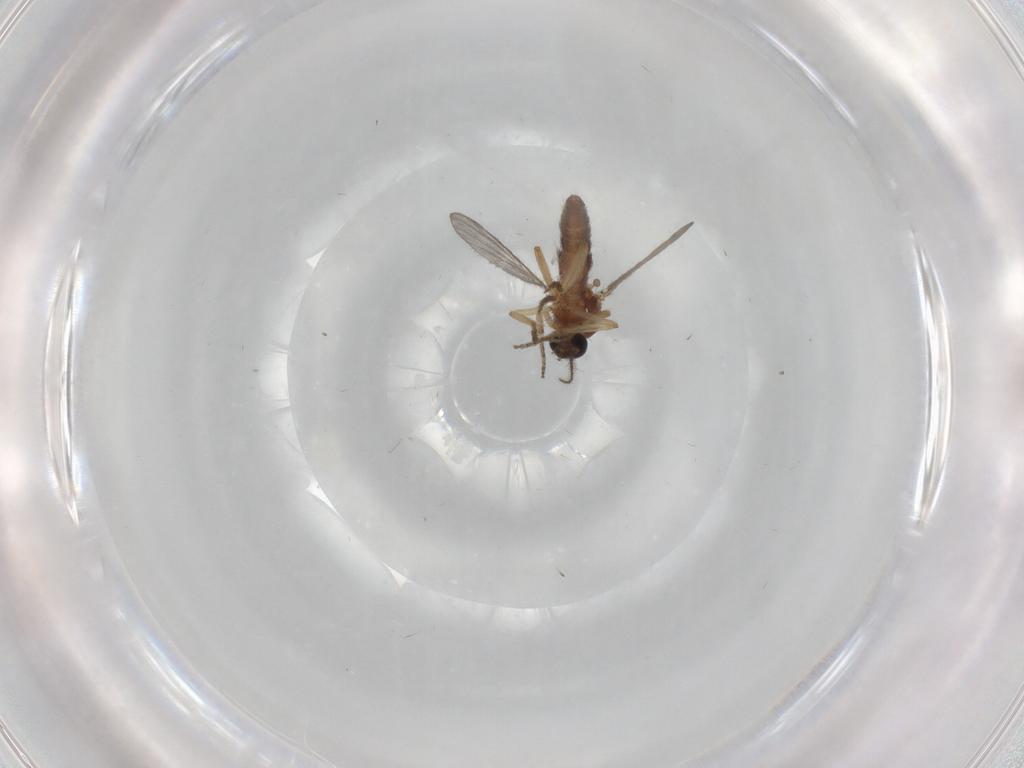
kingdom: Animalia
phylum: Arthropoda
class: Insecta
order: Diptera
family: Ceratopogonidae
